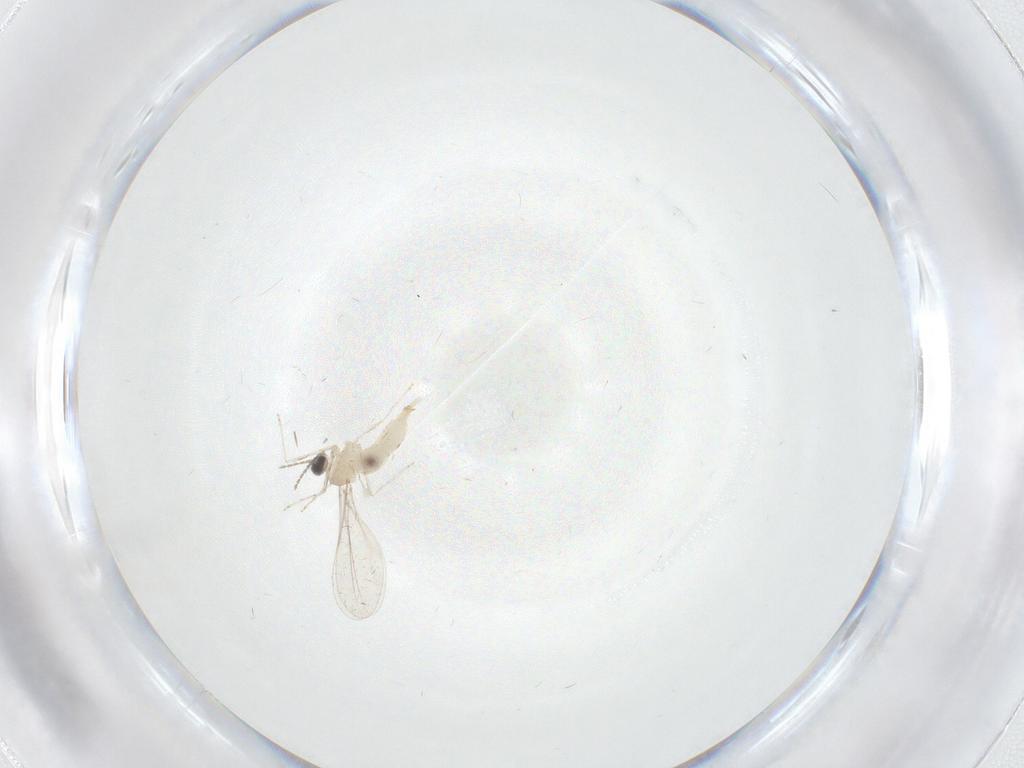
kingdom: Animalia
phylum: Arthropoda
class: Insecta
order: Diptera
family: Cecidomyiidae
